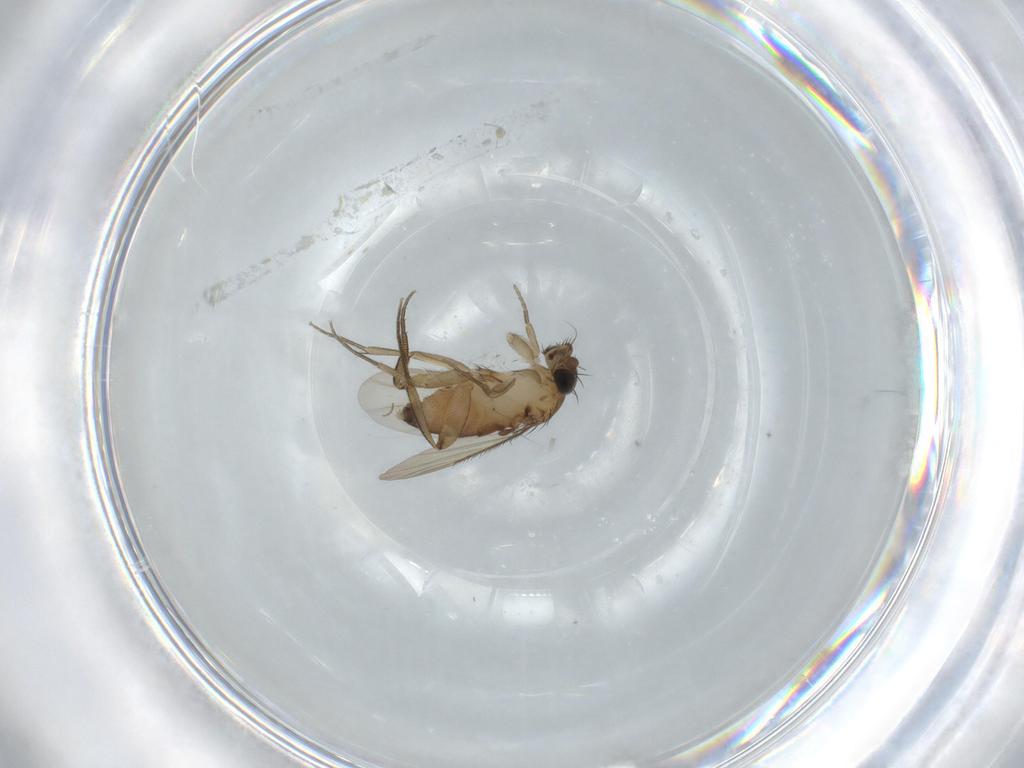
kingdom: Animalia
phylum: Arthropoda
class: Insecta
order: Diptera
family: Phoridae
